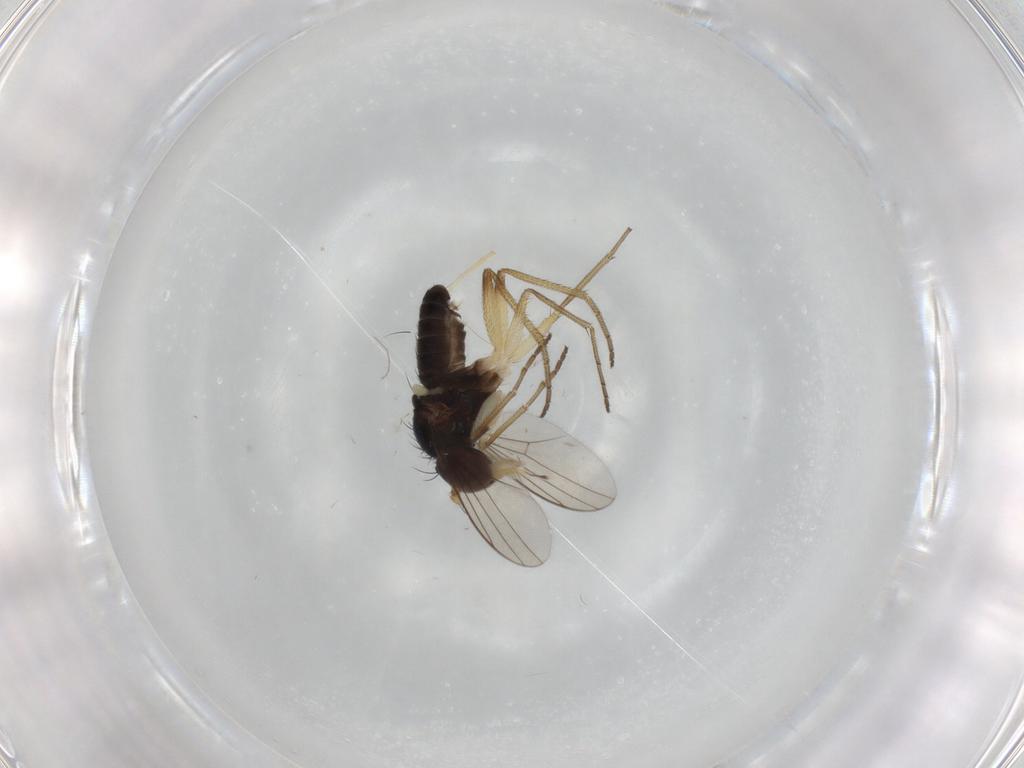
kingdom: Animalia
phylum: Arthropoda
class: Insecta
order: Diptera
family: Dolichopodidae
